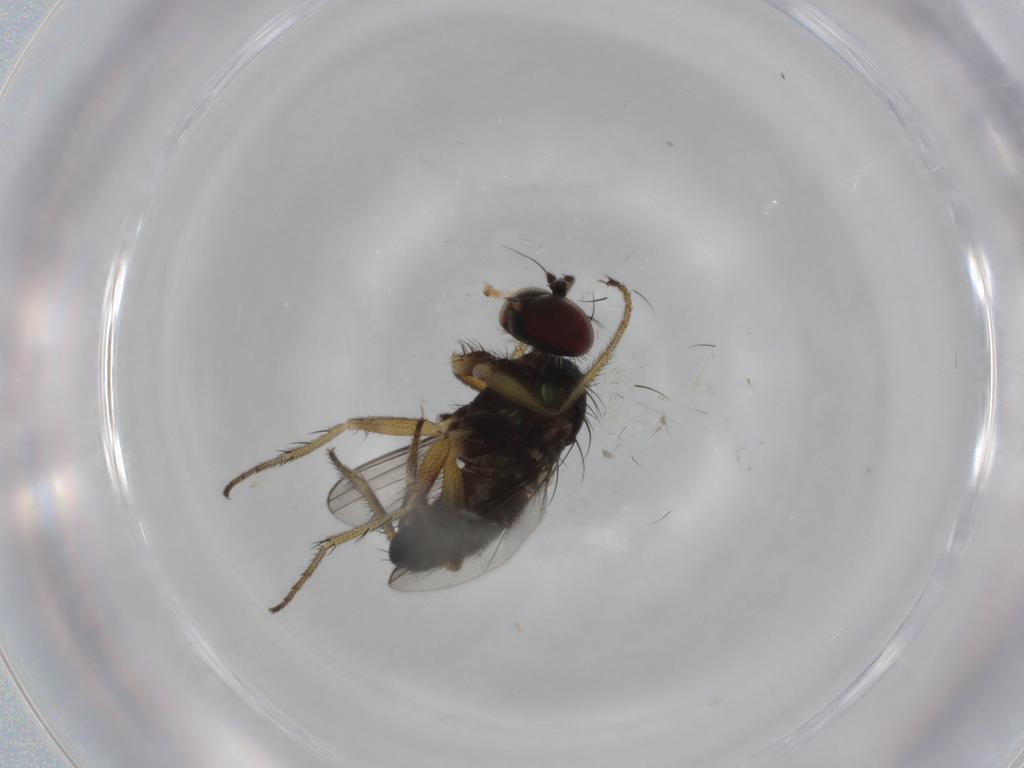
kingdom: Animalia
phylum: Arthropoda
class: Insecta
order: Diptera
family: Dolichopodidae
